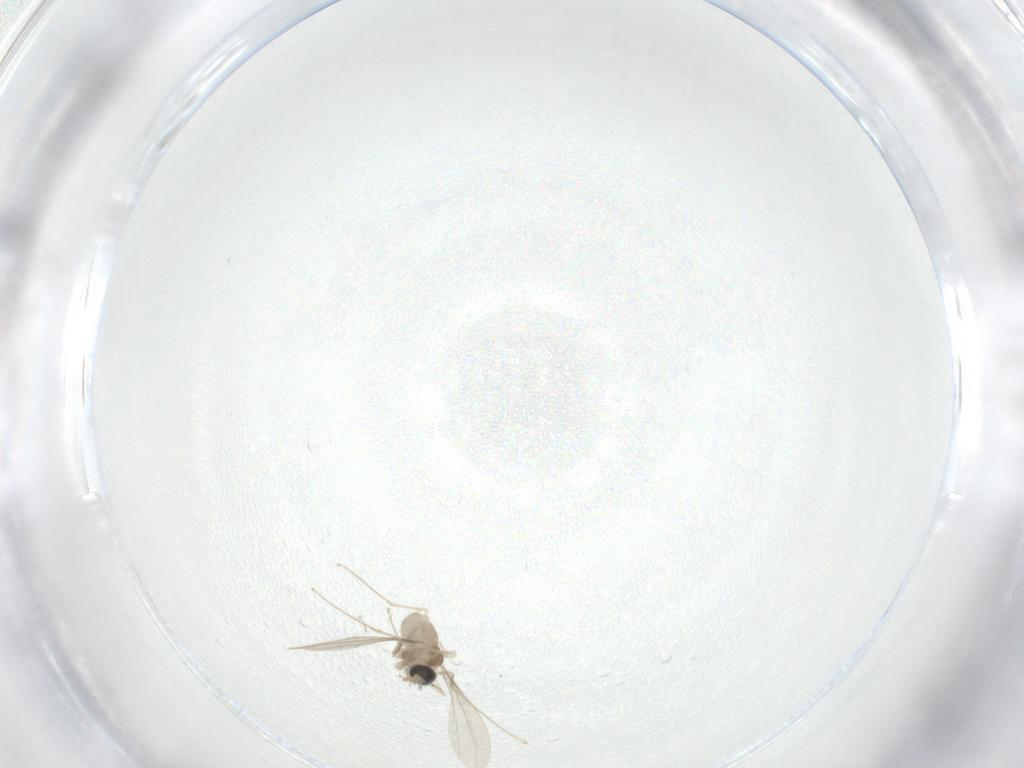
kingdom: Animalia
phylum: Arthropoda
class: Insecta
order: Diptera
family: Cecidomyiidae
